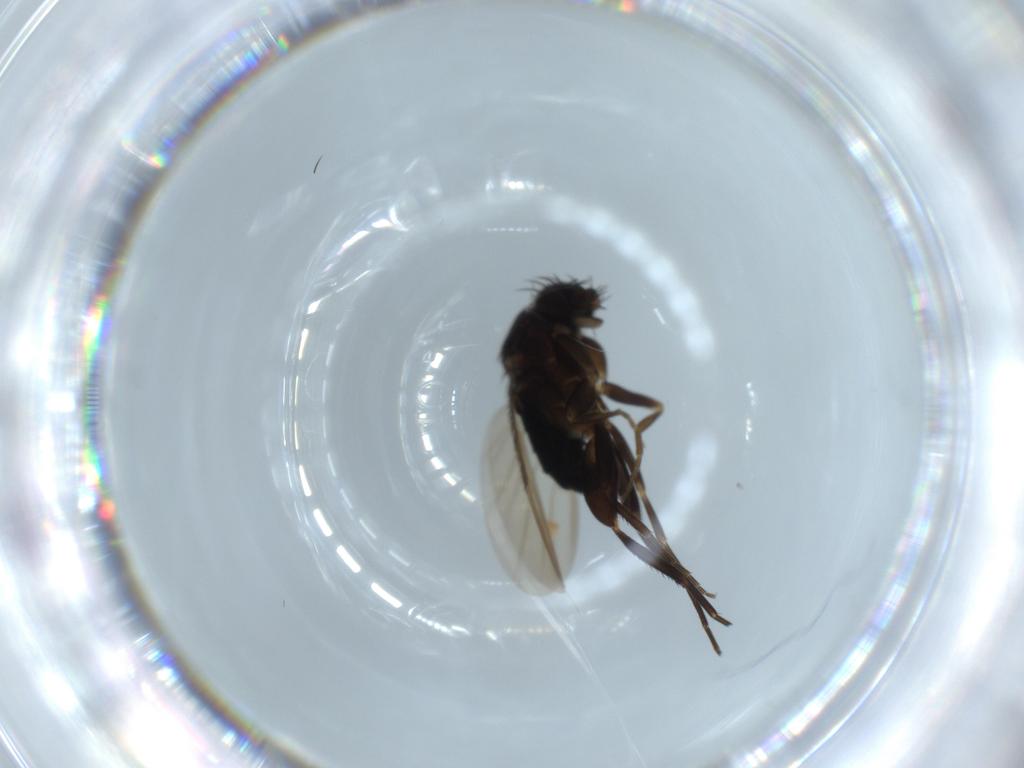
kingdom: Animalia
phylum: Arthropoda
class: Insecta
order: Diptera
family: Phoridae
